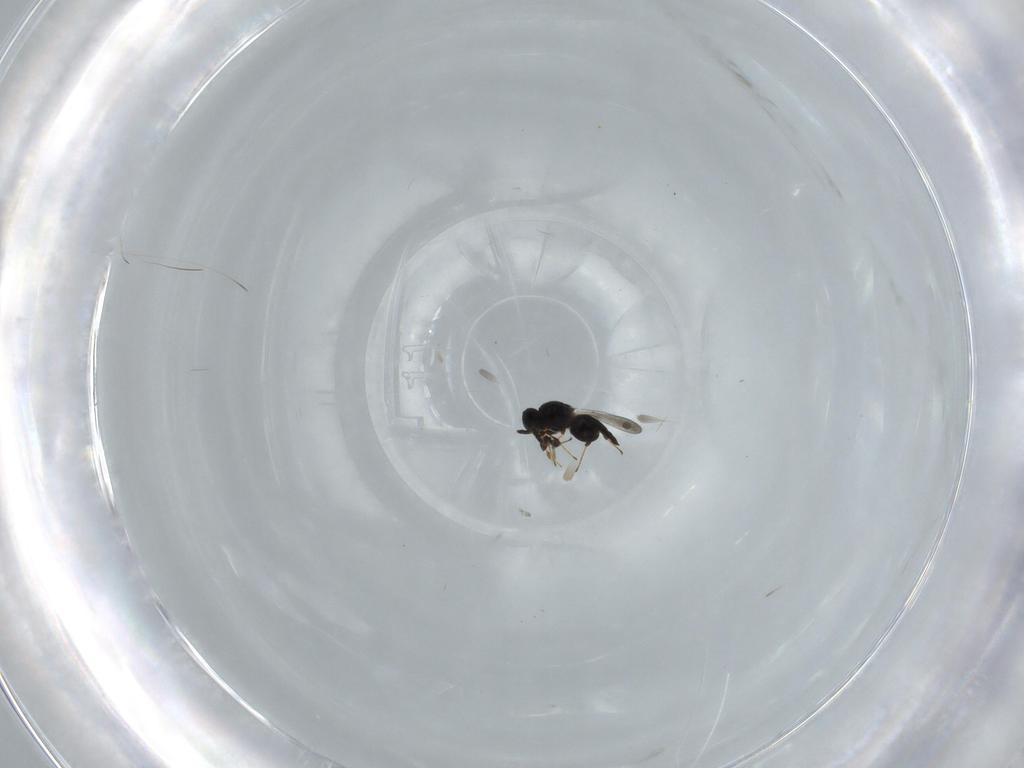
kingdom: Animalia
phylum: Arthropoda
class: Insecta
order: Hymenoptera
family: Platygastridae
